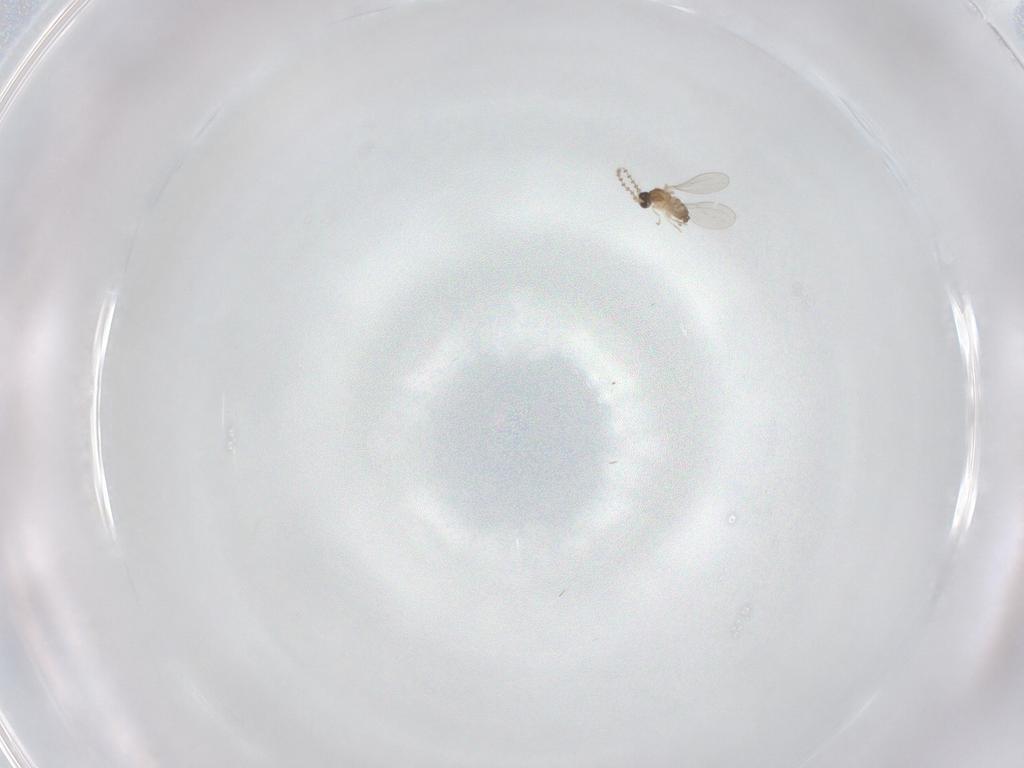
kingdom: Animalia
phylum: Arthropoda
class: Insecta
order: Diptera
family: Cecidomyiidae
